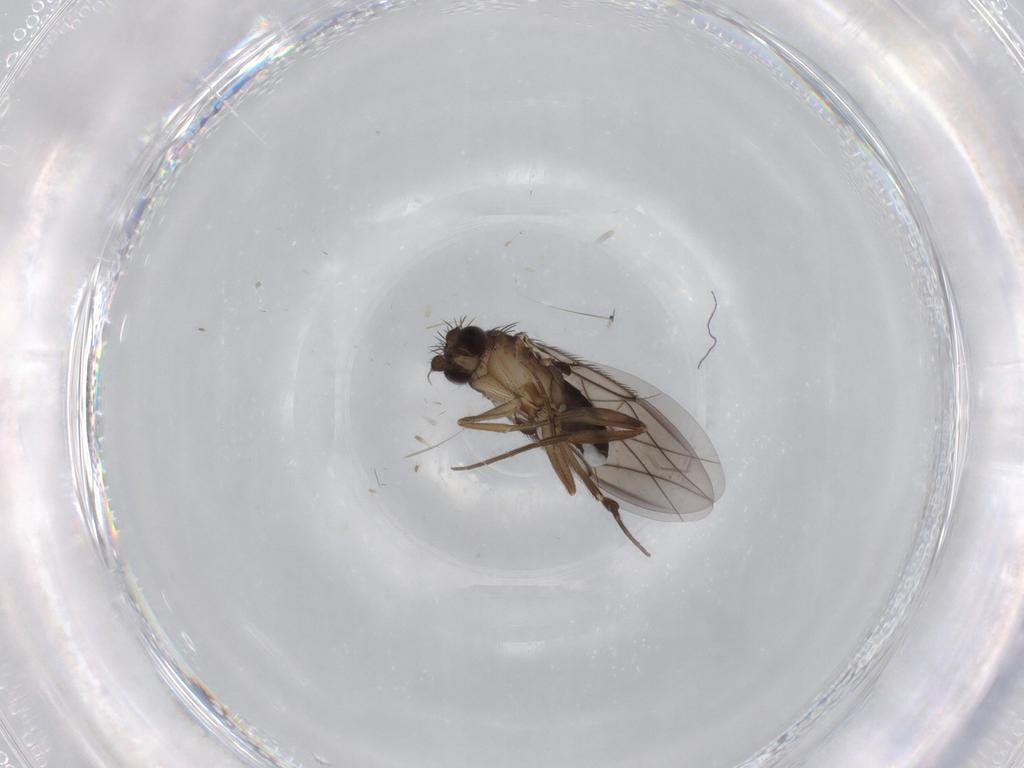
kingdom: Animalia
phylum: Arthropoda
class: Insecta
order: Diptera
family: Phoridae
